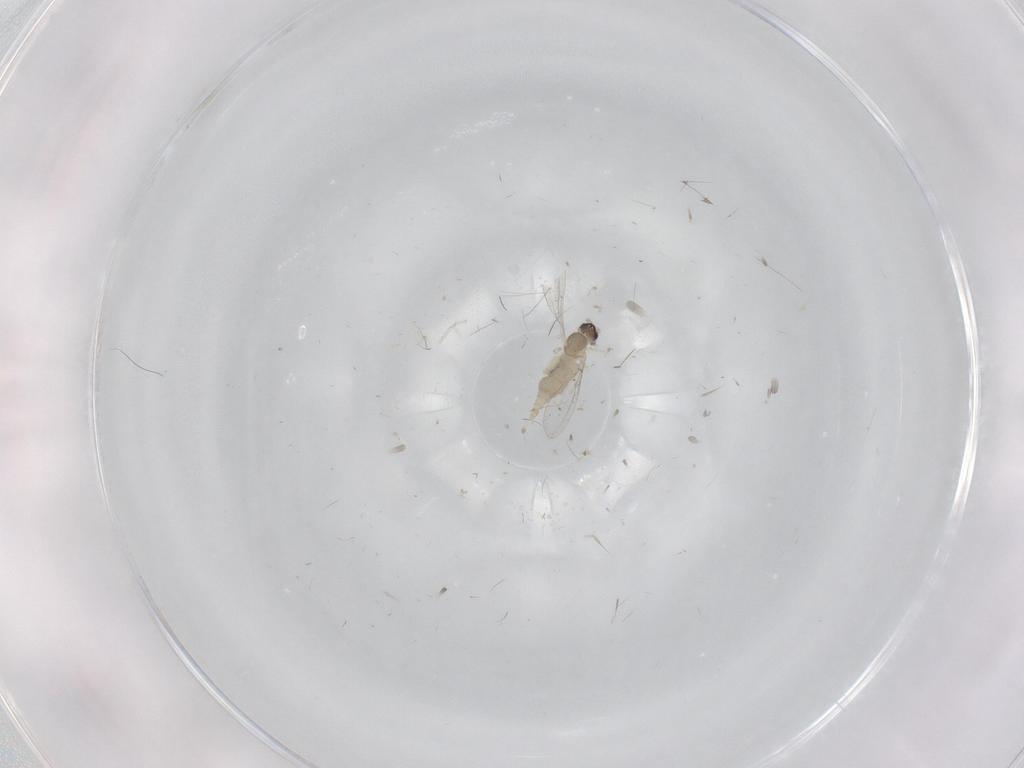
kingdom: Animalia
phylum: Arthropoda
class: Insecta
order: Diptera
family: Cecidomyiidae
